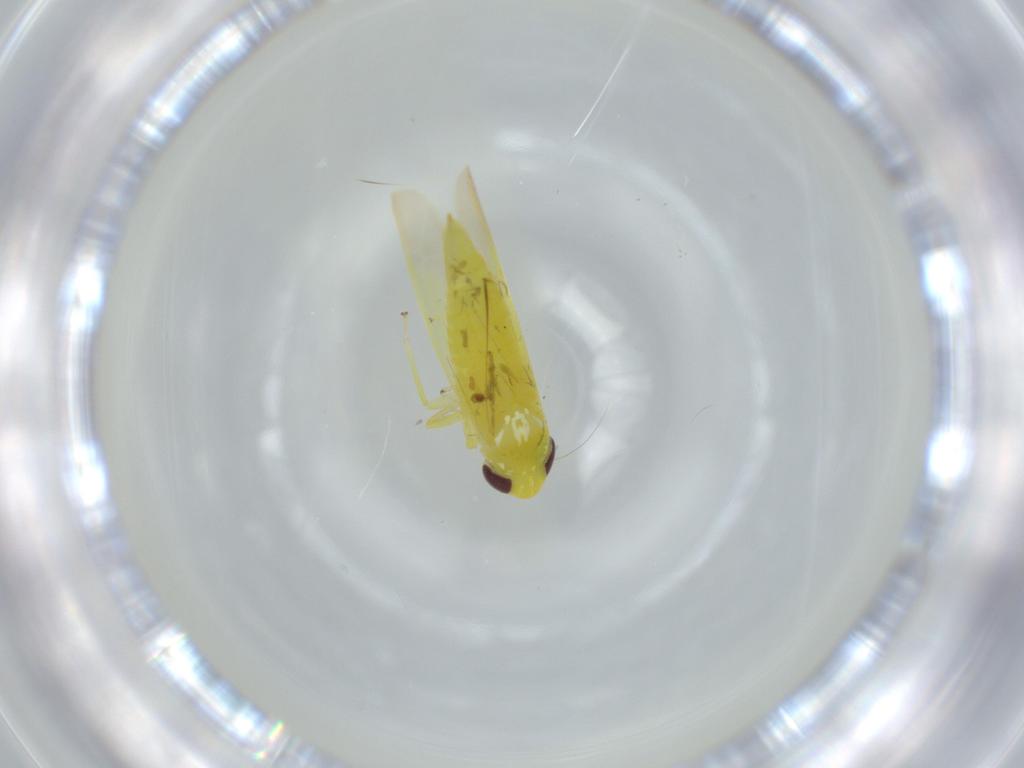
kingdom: Animalia
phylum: Arthropoda
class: Insecta
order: Hemiptera
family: Cicadellidae
